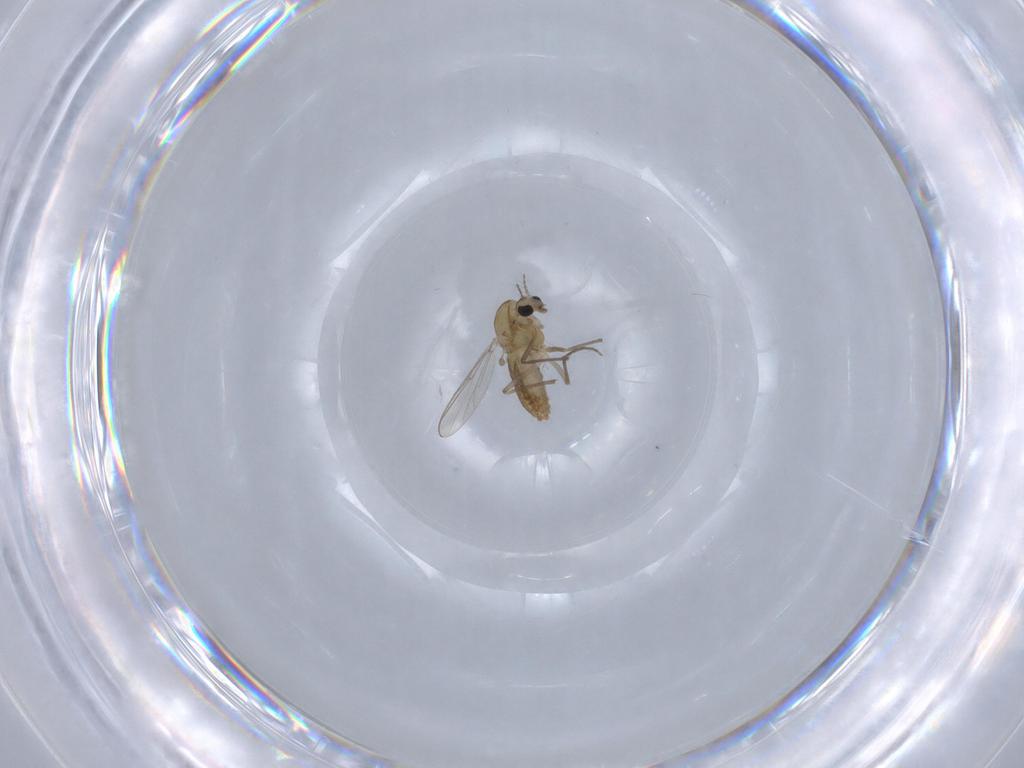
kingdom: Animalia
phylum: Arthropoda
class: Insecta
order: Diptera
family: Chironomidae
